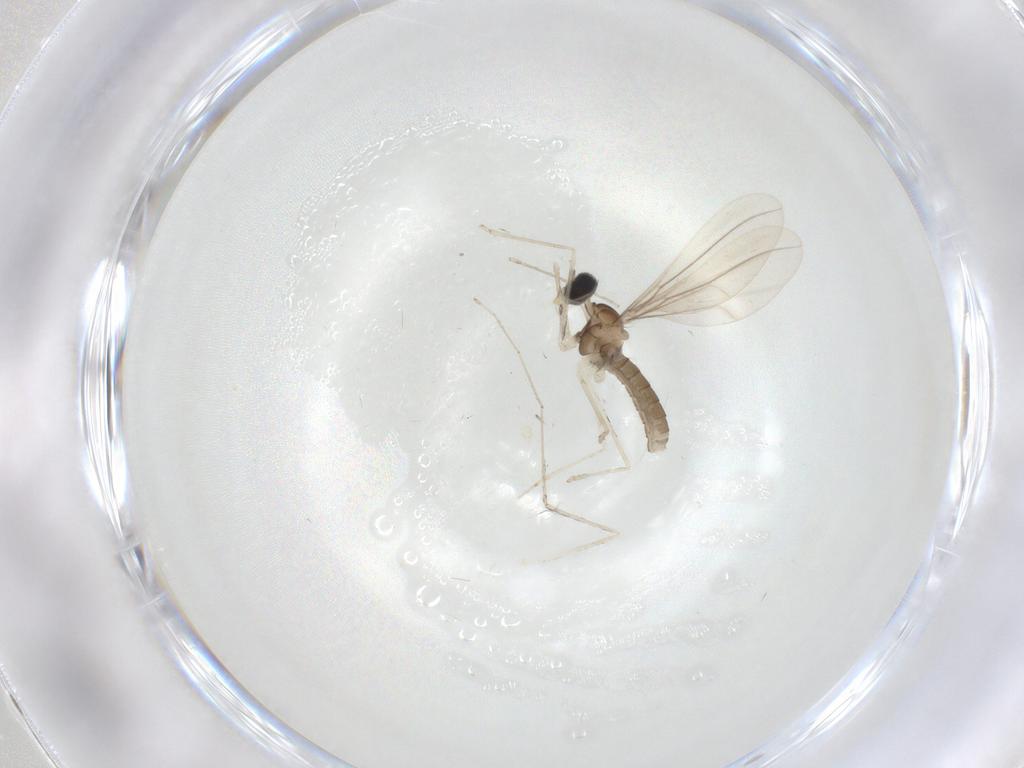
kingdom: Animalia
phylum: Arthropoda
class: Insecta
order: Diptera
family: Cecidomyiidae
